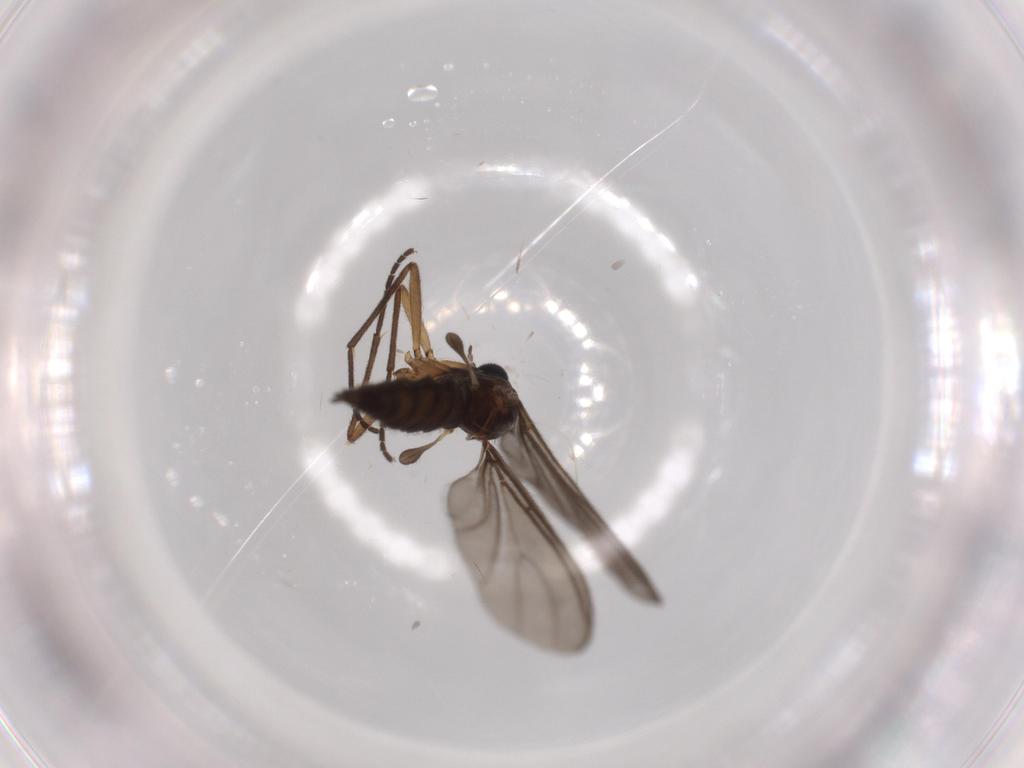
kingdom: Animalia
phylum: Arthropoda
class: Insecta
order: Diptera
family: Sciaridae
